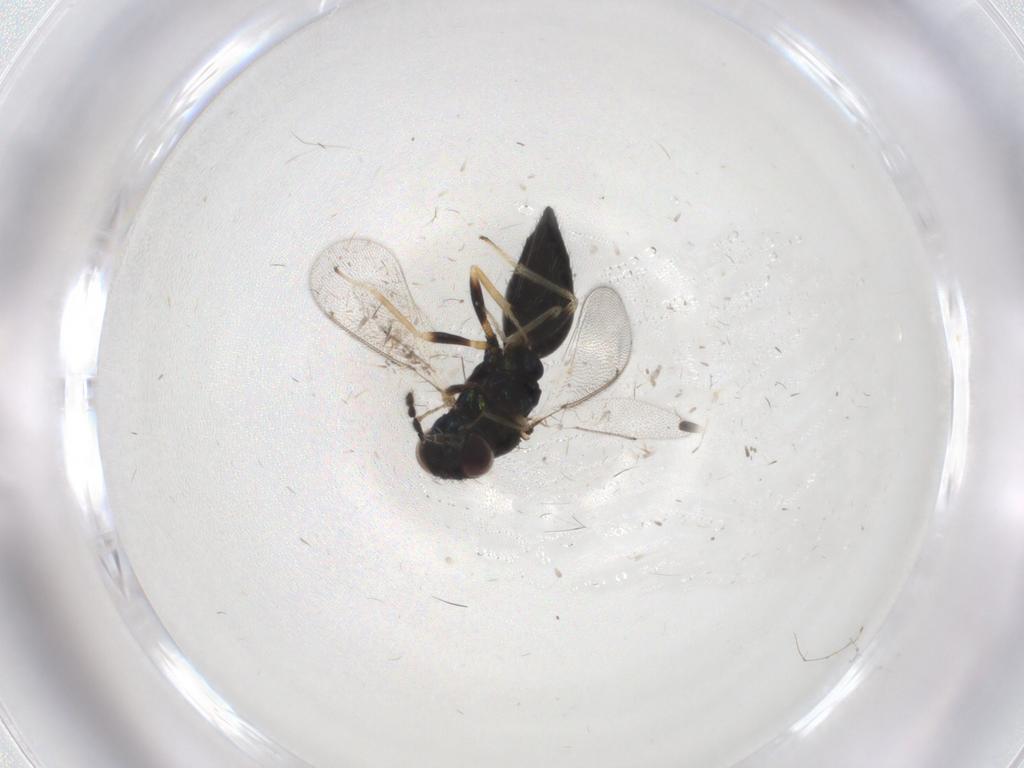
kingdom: Animalia
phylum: Arthropoda
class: Insecta
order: Hymenoptera
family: Eulophidae
